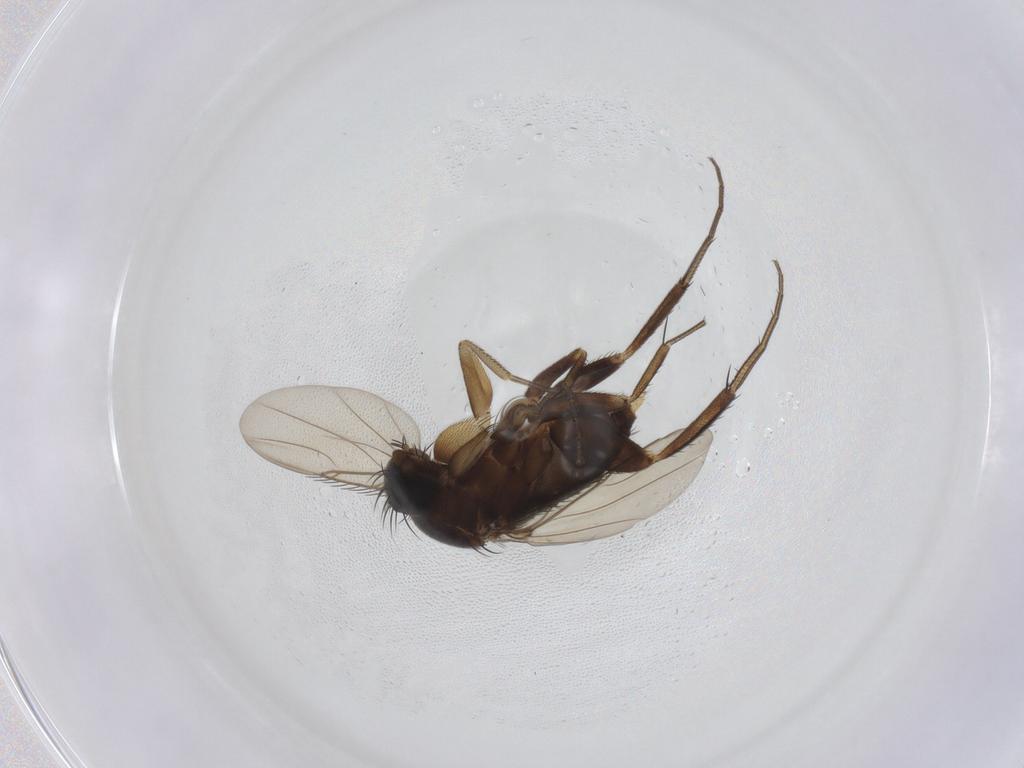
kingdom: Animalia
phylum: Arthropoda
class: Insecta
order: Diptera
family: Phoridae
